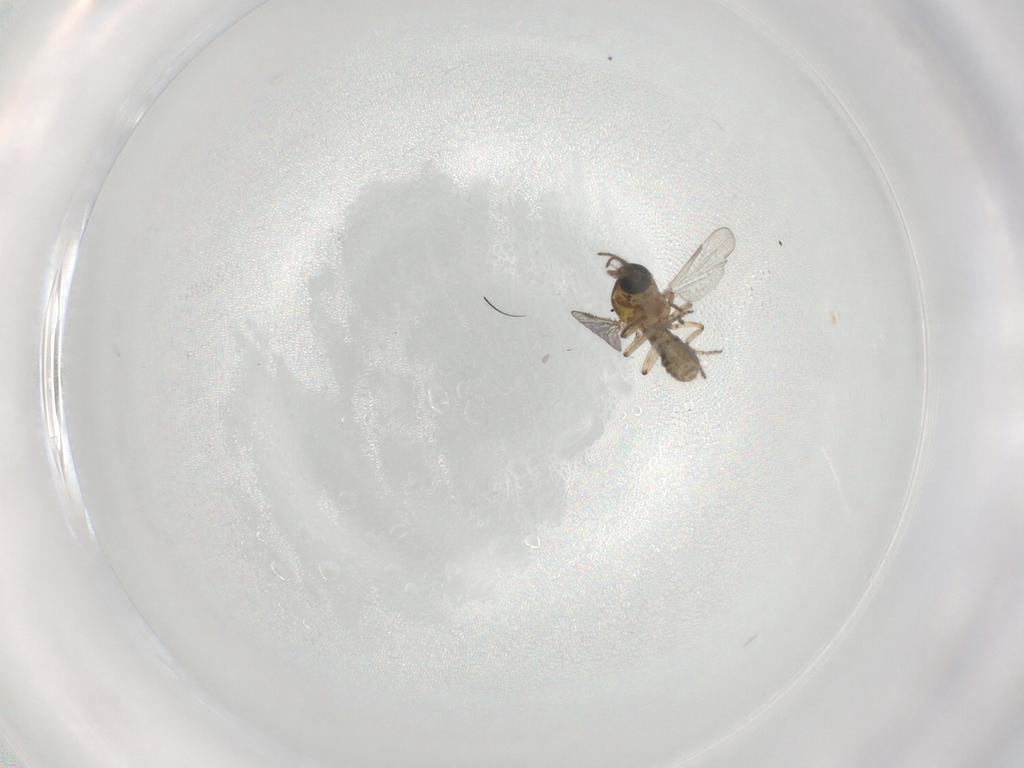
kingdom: Animalia
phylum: Arthropoda
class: Insecta
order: Diptera
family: Ceratopogonidae
